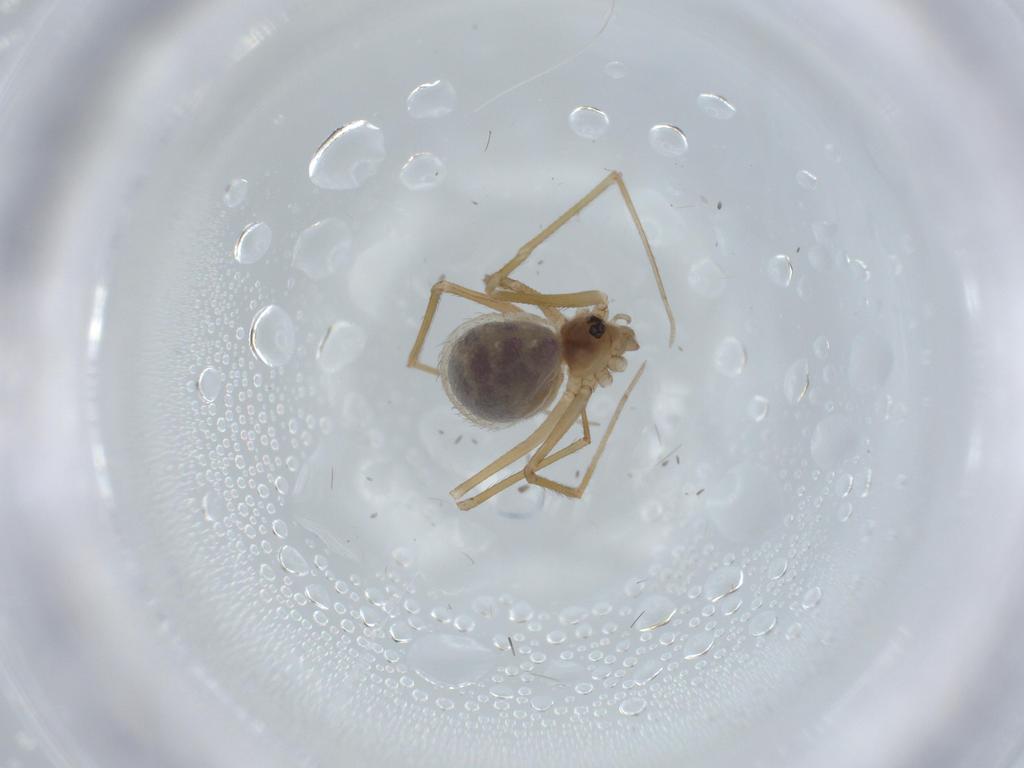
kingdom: Animalia
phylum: Arthropoda
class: Arachnida
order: Araneae
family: Pholcidae
